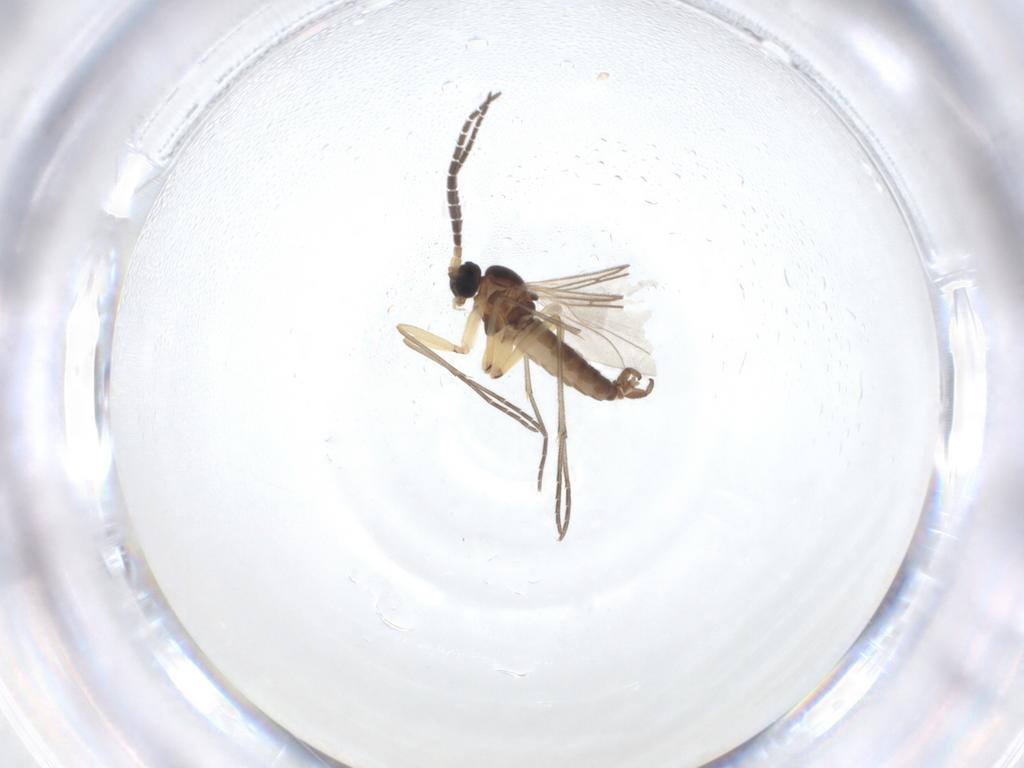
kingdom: Animalia
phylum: Arthropoda
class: Insecta
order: Diptera
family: Sciaridae
